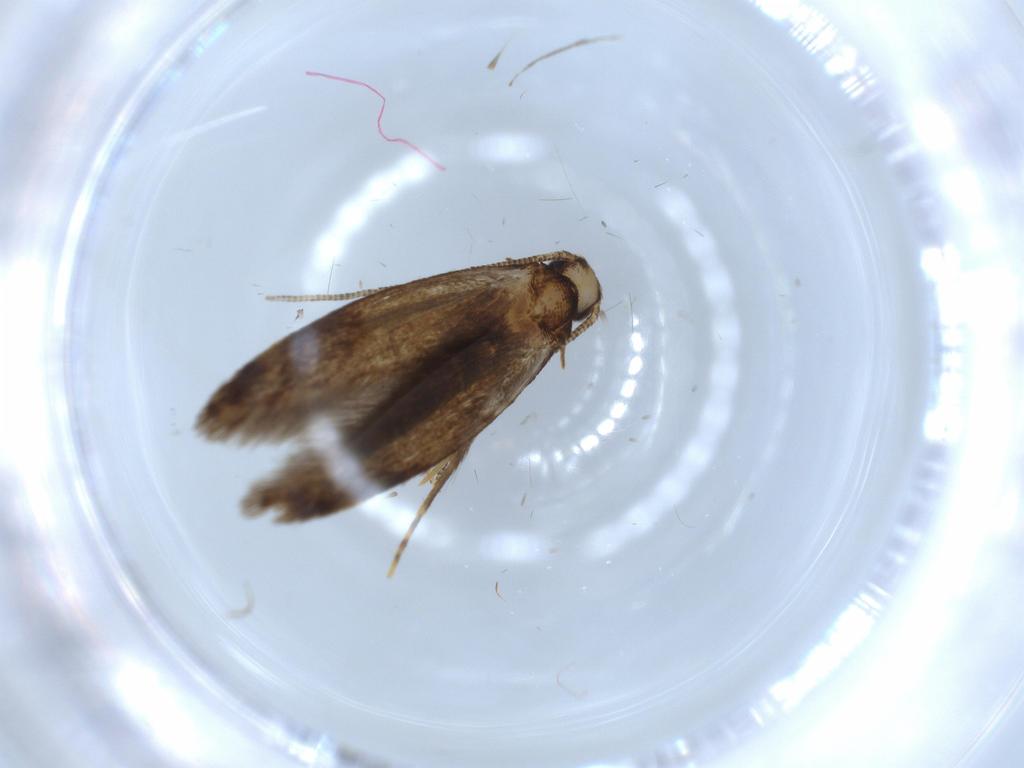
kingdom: Animalia
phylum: Arthropoda
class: Insecta
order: Lepidoptera
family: Tineidae
